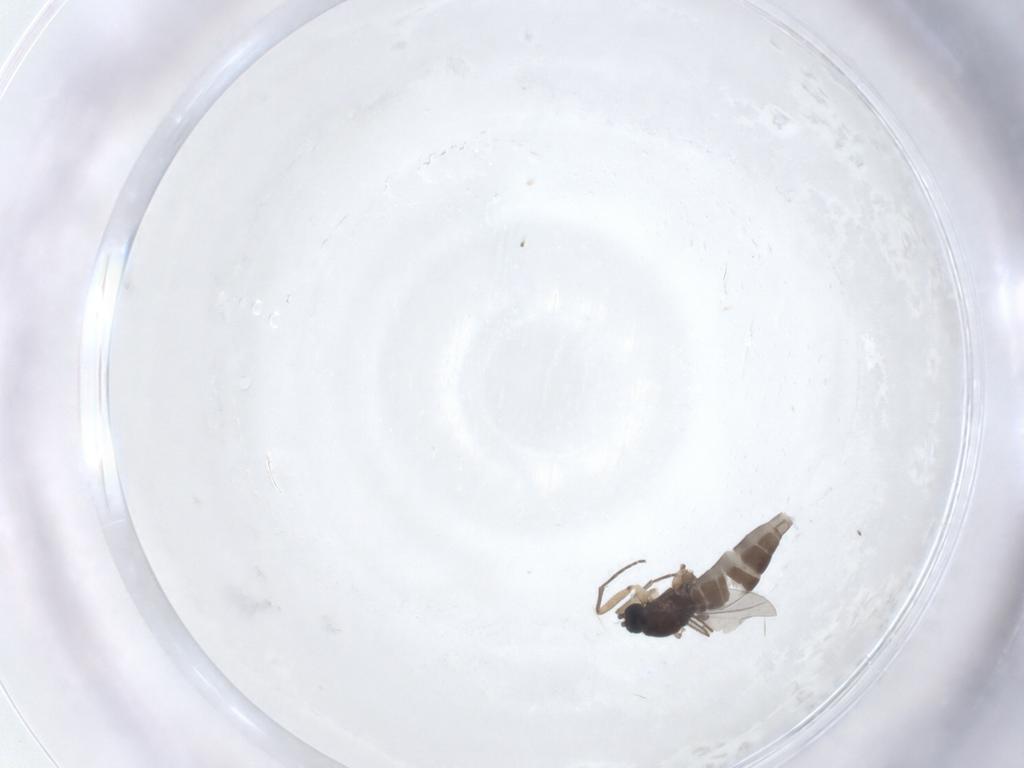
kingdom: Animalia
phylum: Arthropoda
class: Insecta
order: Diptera
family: Sciaridae
